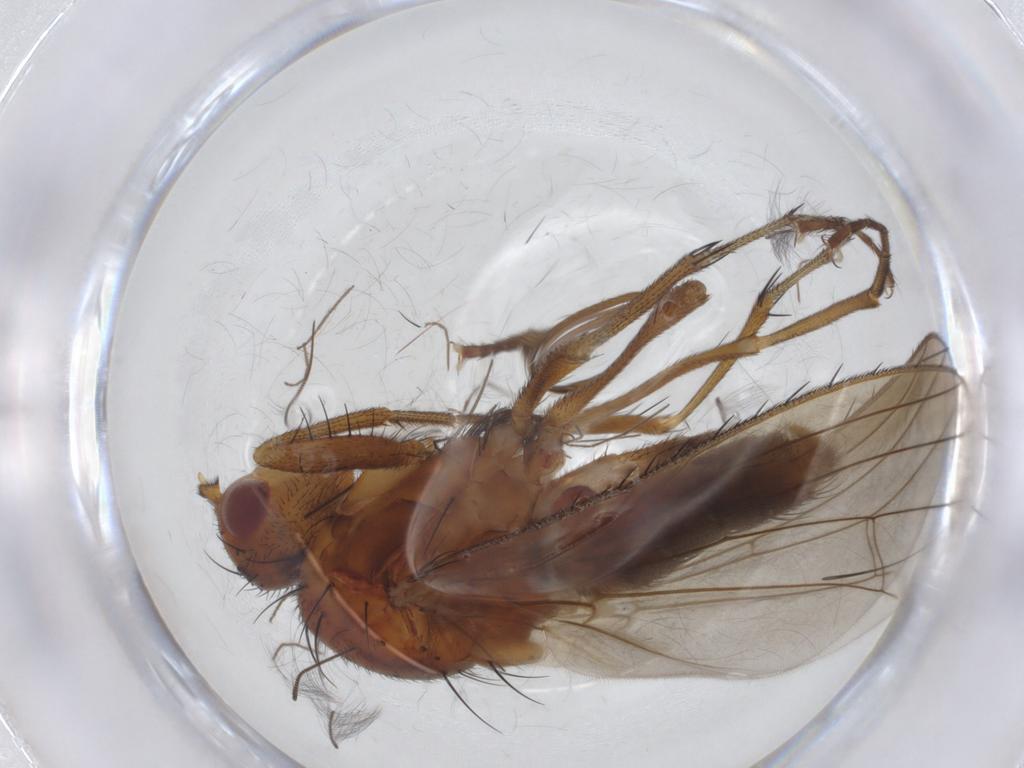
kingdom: Animalia
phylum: Arthropoda
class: Insecta
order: Diptera
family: Heleomyzidae
